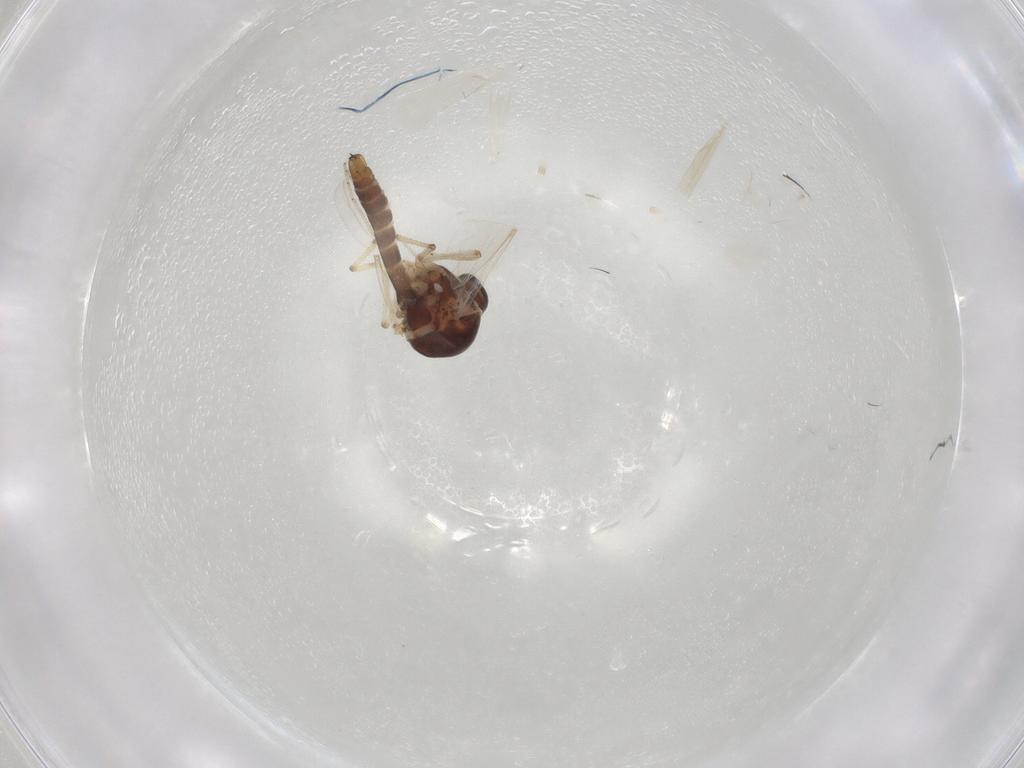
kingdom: Animalia
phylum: Arthropoda
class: Insecta
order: Diptera
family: Ceratopogonidae
